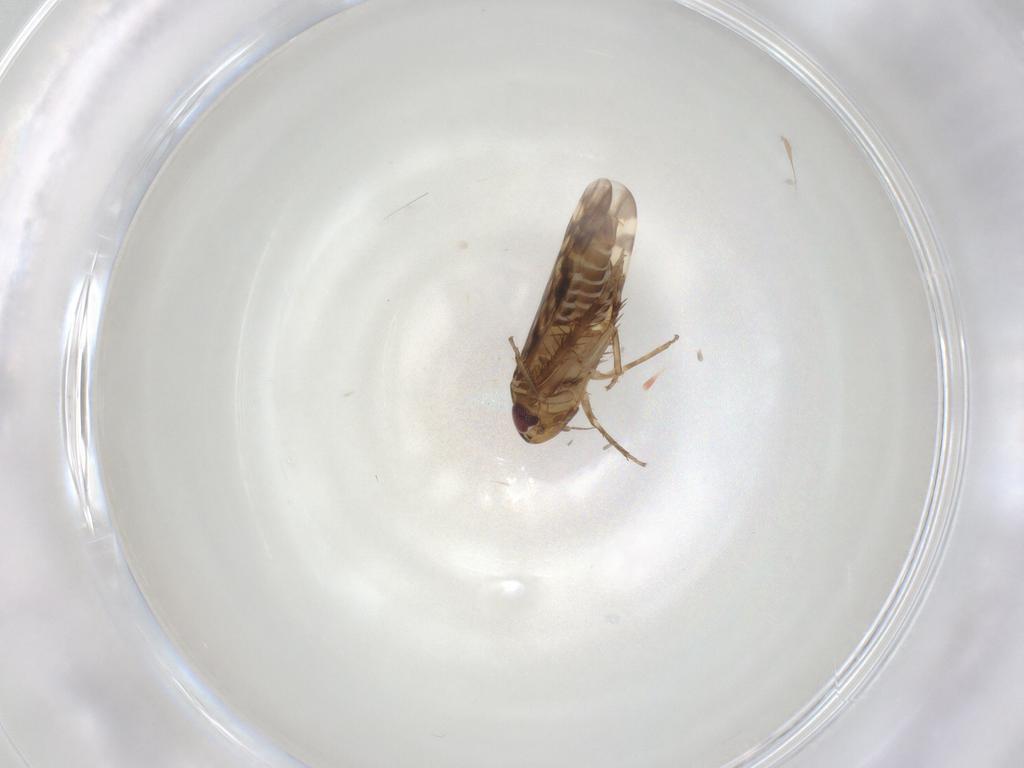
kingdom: Animalia
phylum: Arthropoda
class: Insecta
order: Hemiptera
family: Cicadellidae
